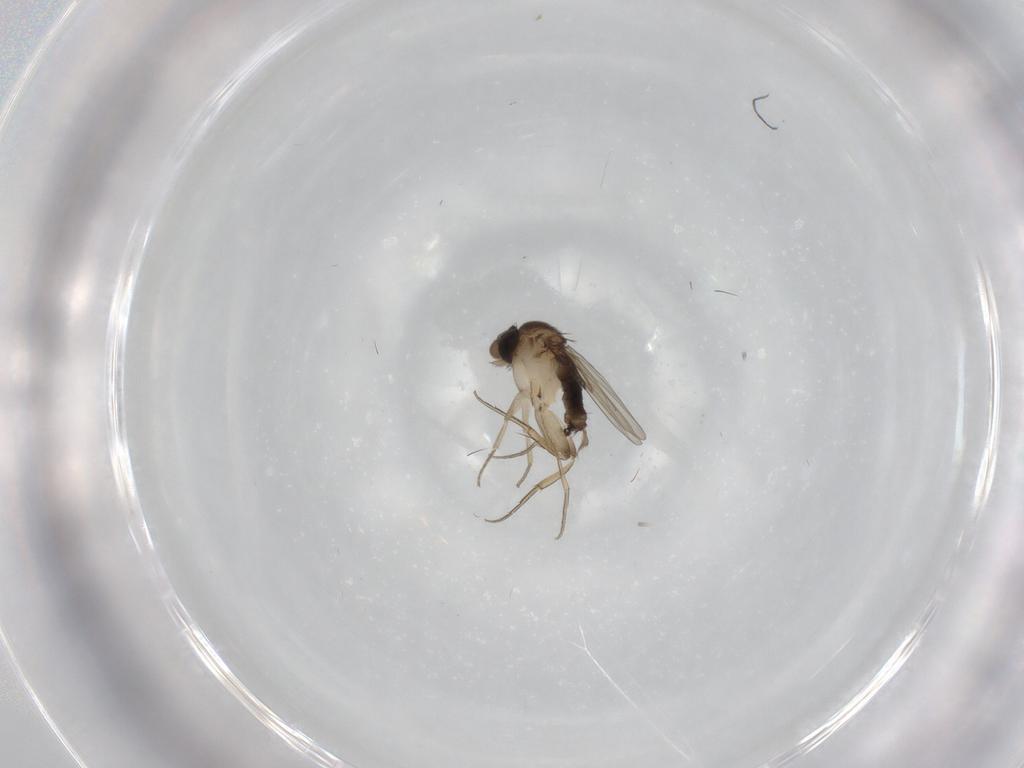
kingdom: Animalia
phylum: Arthropoda
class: Insecta
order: Diptera
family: Phoridae
